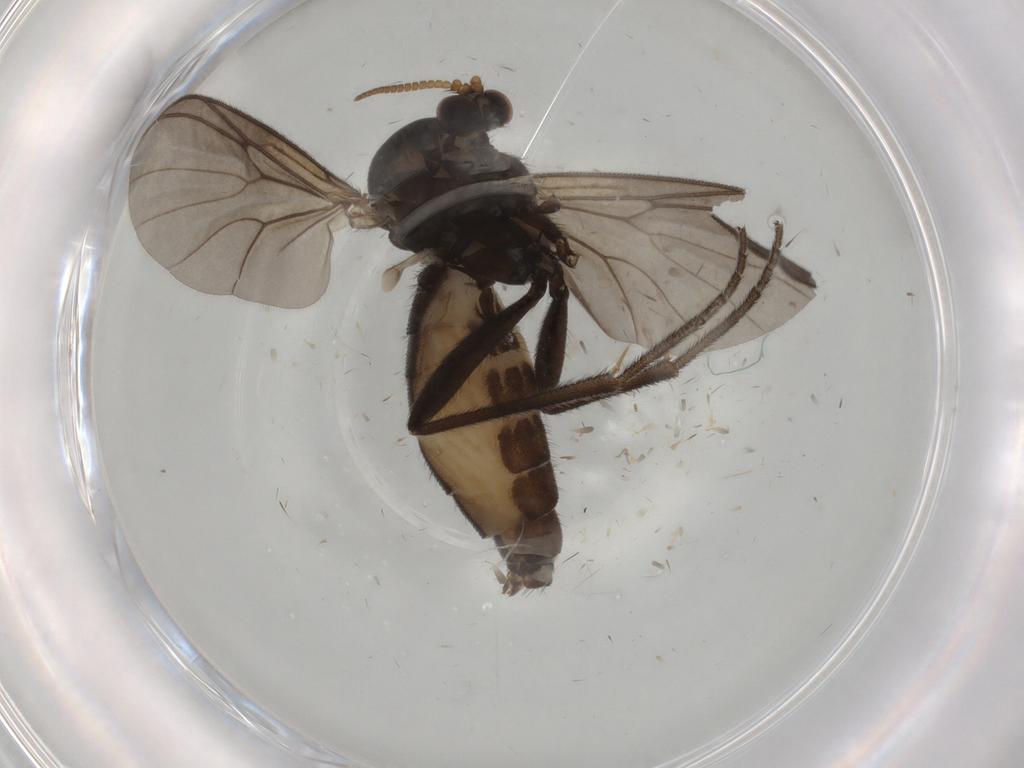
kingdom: Animalia
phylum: Arthropoda
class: Insecta
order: Diptera
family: Mycetophilidae
